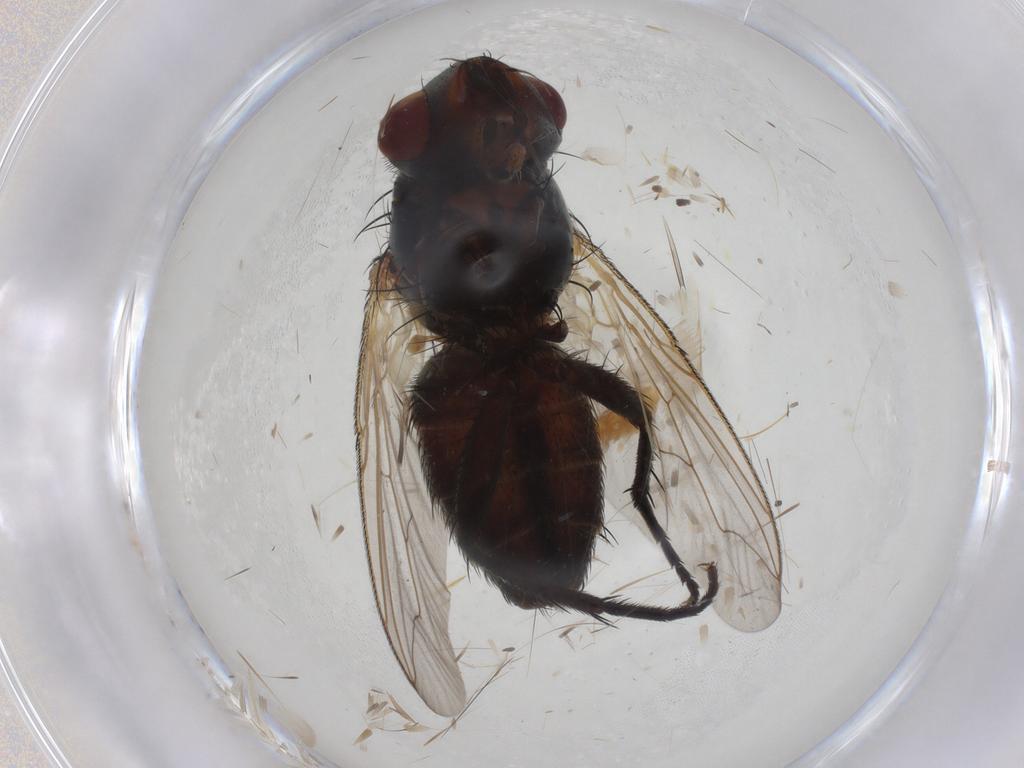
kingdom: Animalia
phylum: Arthropoda
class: Insecta
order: Diptera
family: Sarcophagidae
